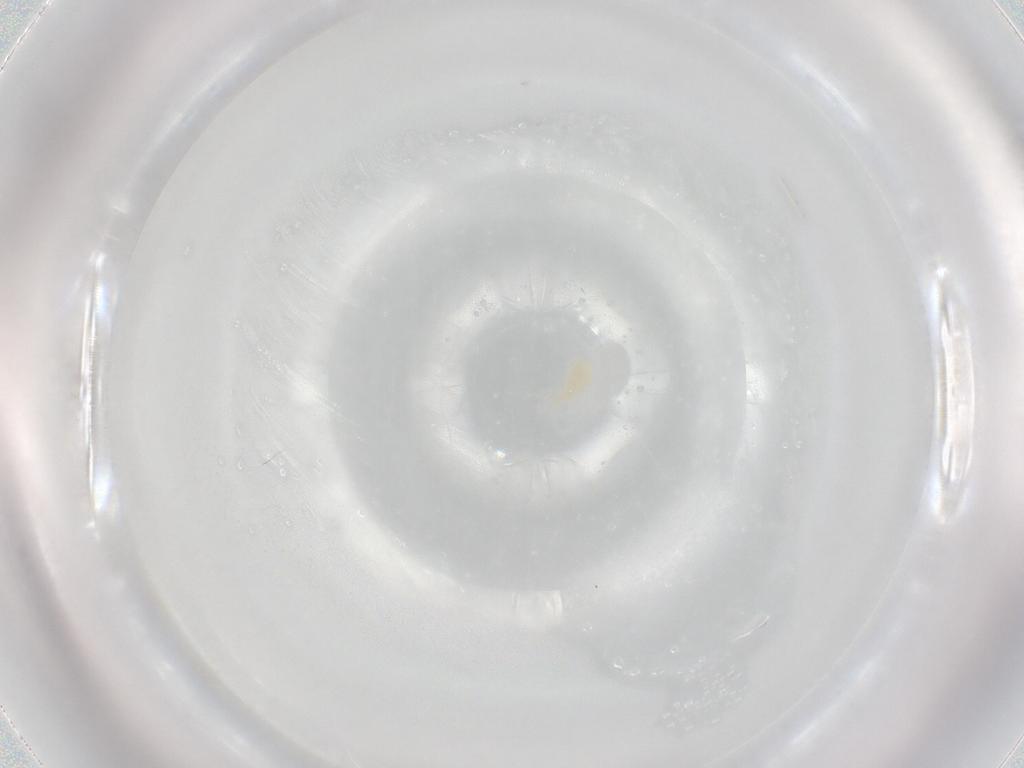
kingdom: Animalia
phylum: Arthropoda
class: Arachnida
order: Trombidiformes
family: Eupodidae
